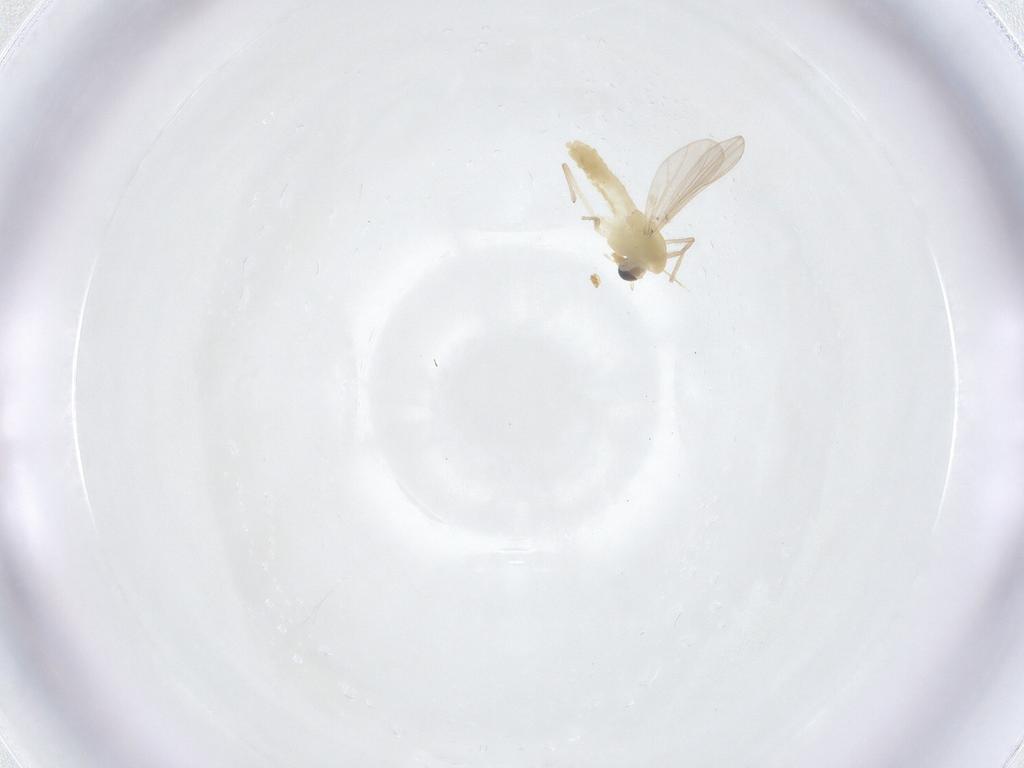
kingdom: Animalia
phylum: Arthropoda
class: Insecta
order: Diptera
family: Chironomidae
